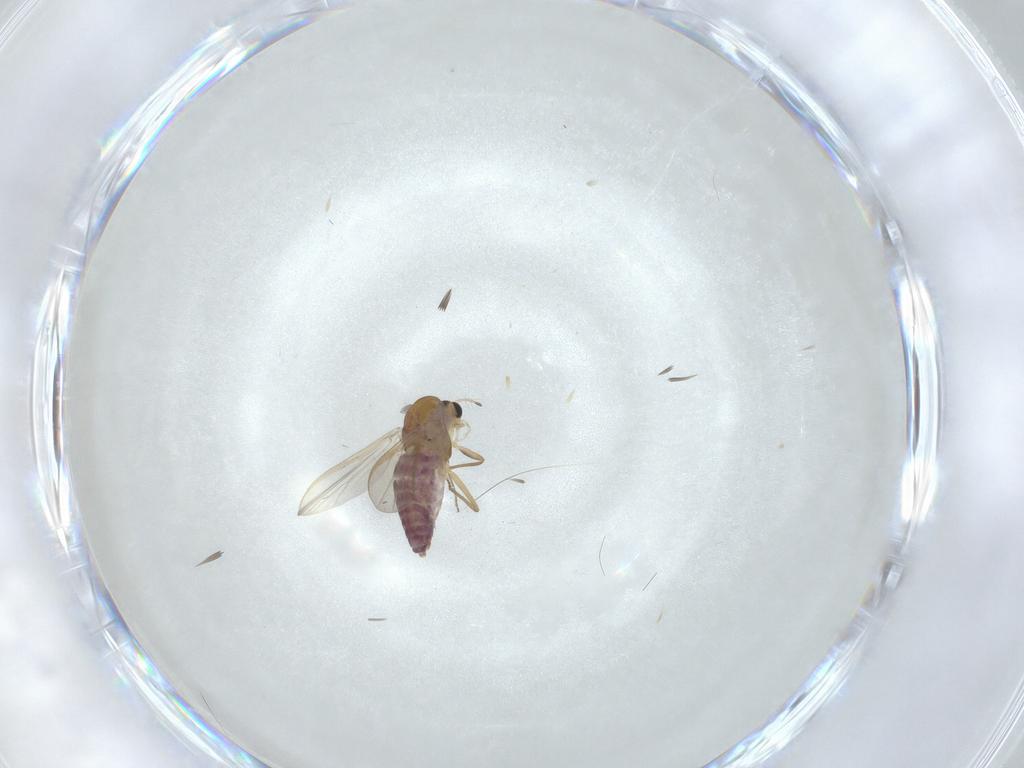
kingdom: Animalia
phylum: Arthropoda
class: Insecta
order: Diptera
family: Chironomidae
